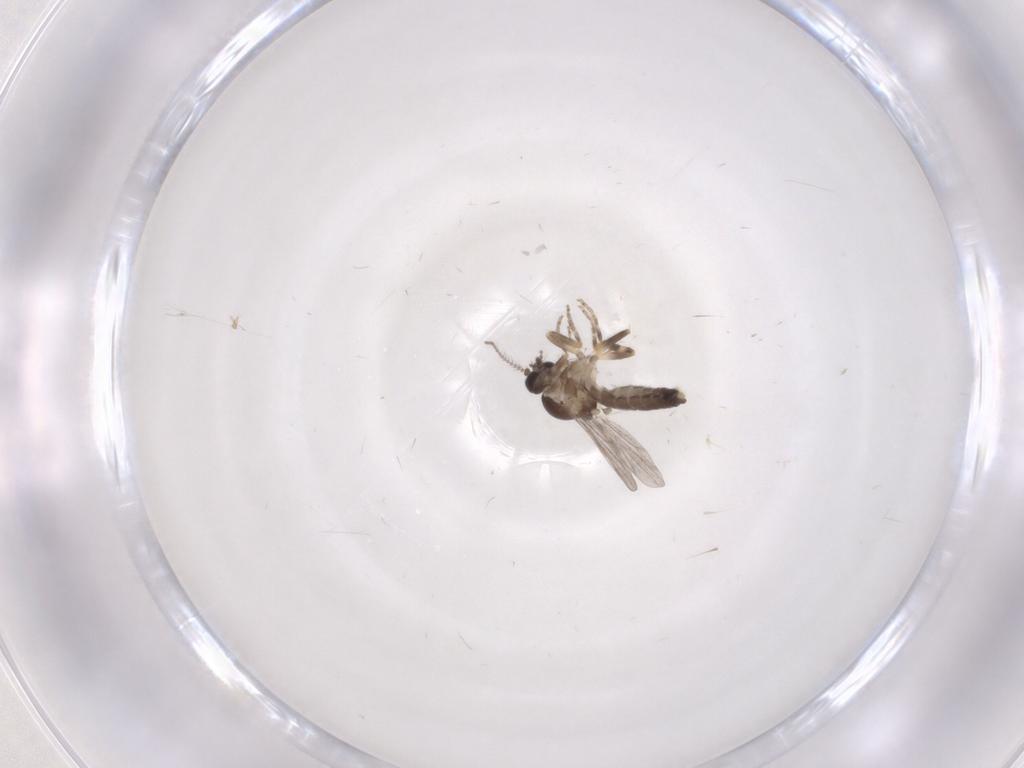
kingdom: Animalia
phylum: Arthropoda
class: Insecta
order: Diptera
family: Ceratopogonidae
